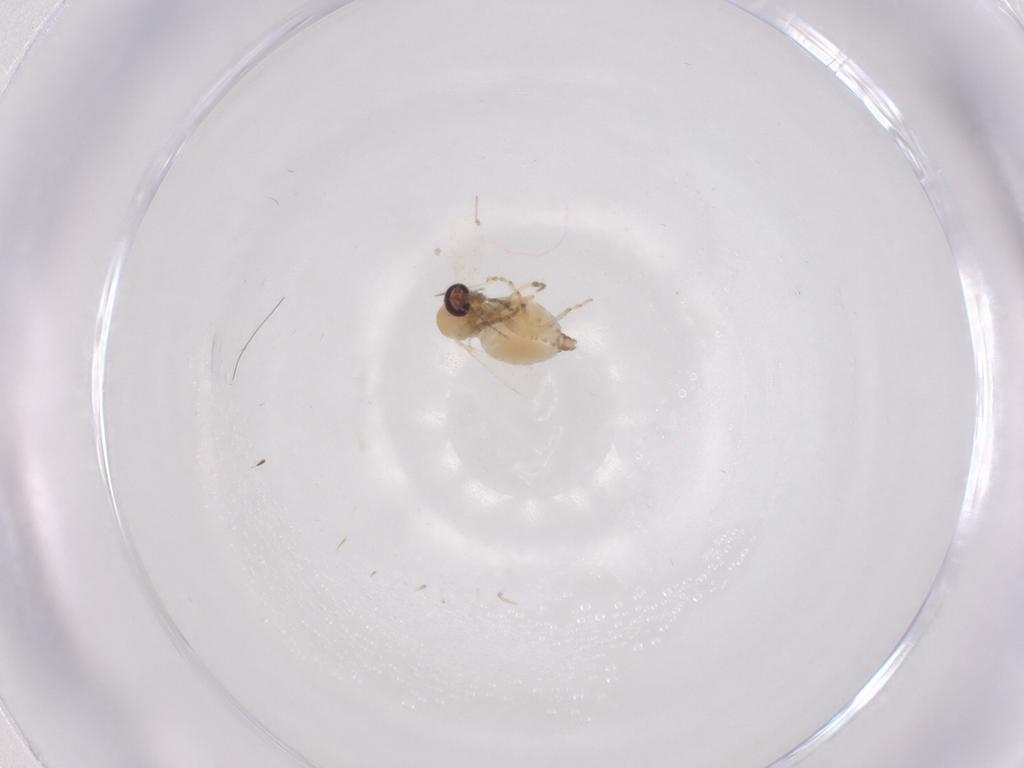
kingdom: Animalia
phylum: Arthropoda
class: Insecta
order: Diptera
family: Ceratopogonidae
